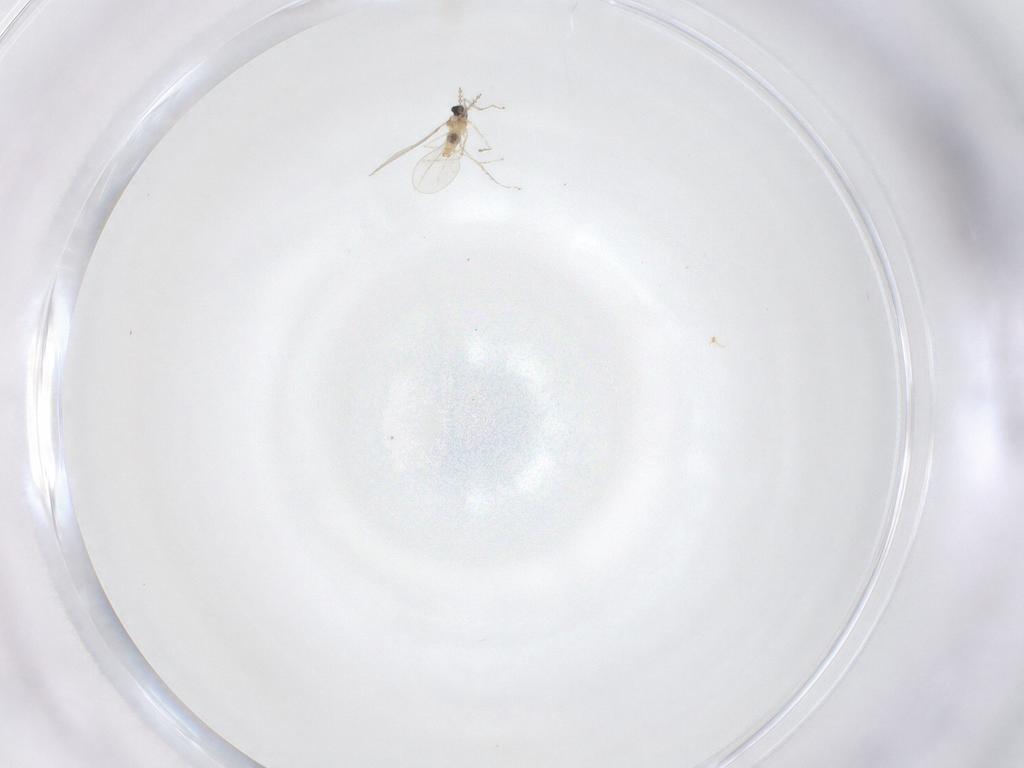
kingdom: Animalia
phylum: Arthropoda
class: Insecta
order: Diptera
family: Cecidomyiidae
